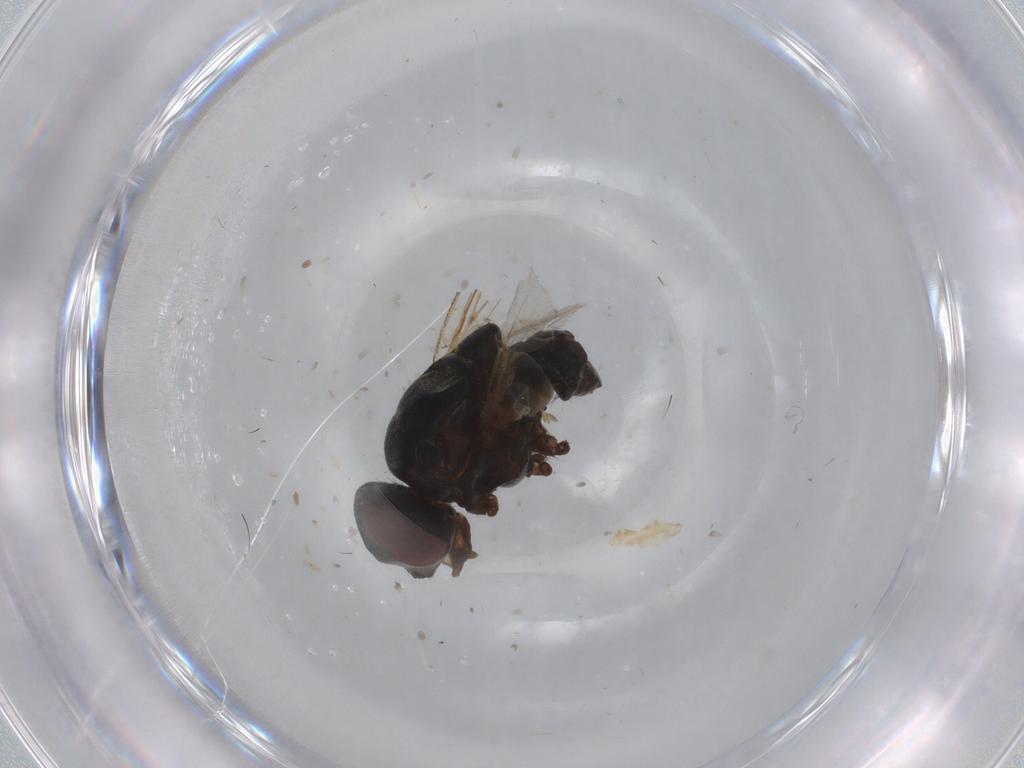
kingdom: Animalia
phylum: Arthropoda
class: Insecta
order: Diptera
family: Muscidae
